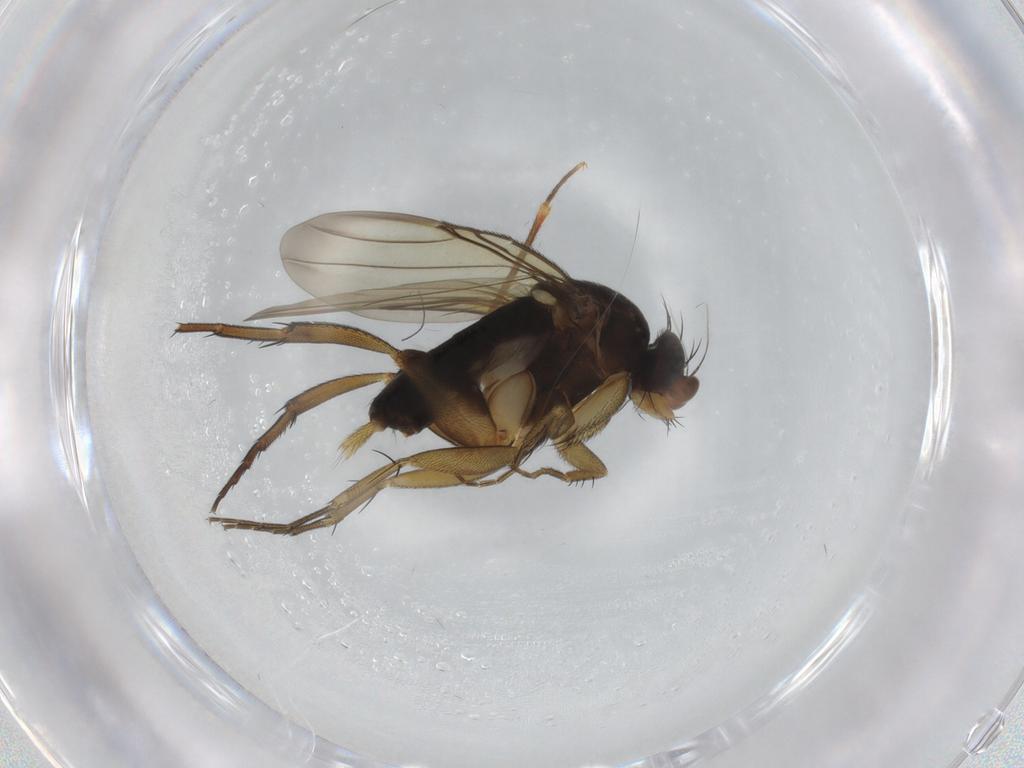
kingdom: Animalia
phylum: Arthropoda
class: Insecta
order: Diptera
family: Phoridae
